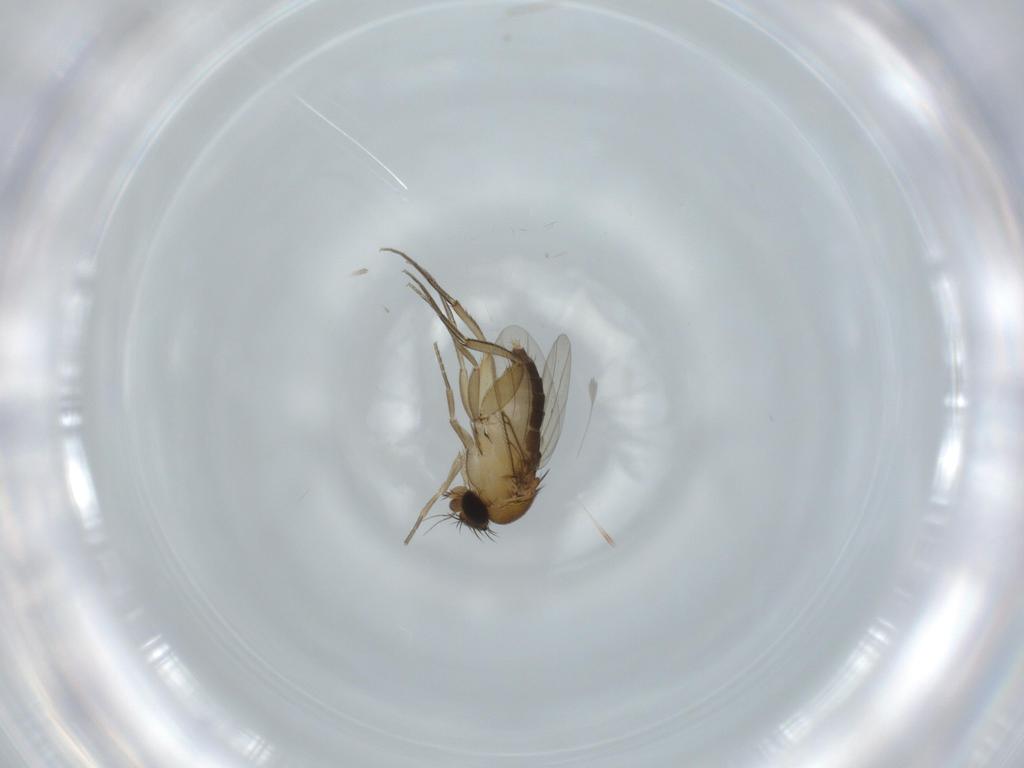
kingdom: Animalia
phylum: Arthropoda
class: Insecta
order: Diptera
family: Phoridae
